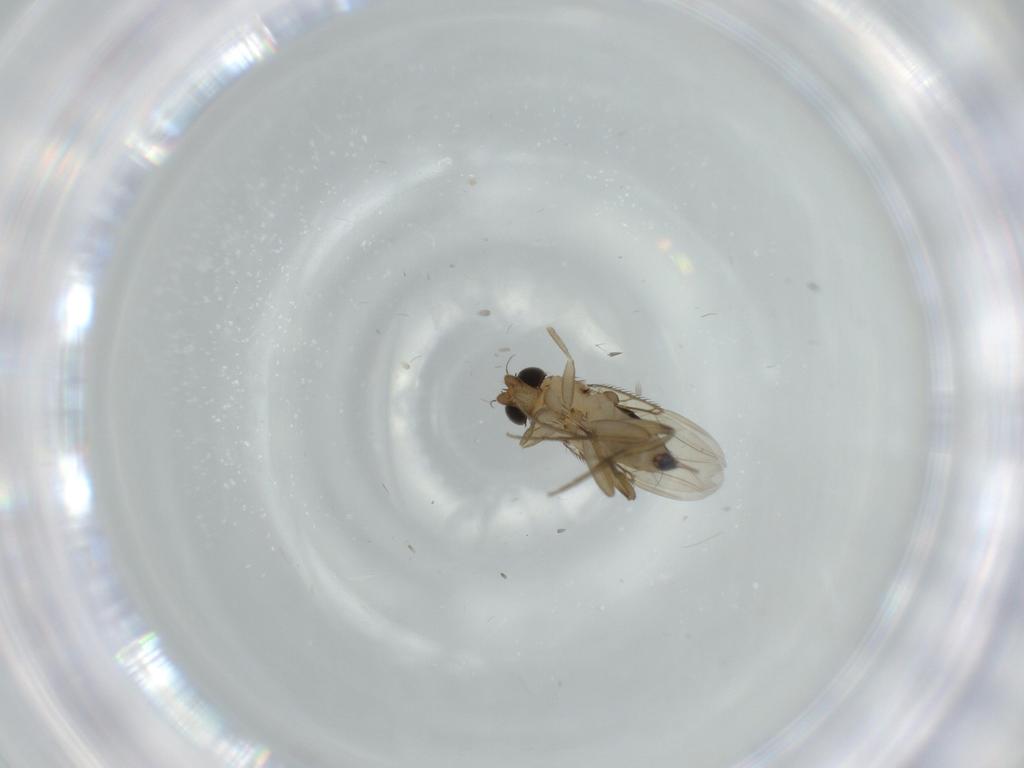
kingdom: Animalia
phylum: Arthropoda
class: Insecta
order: Diptera
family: Phoridae
